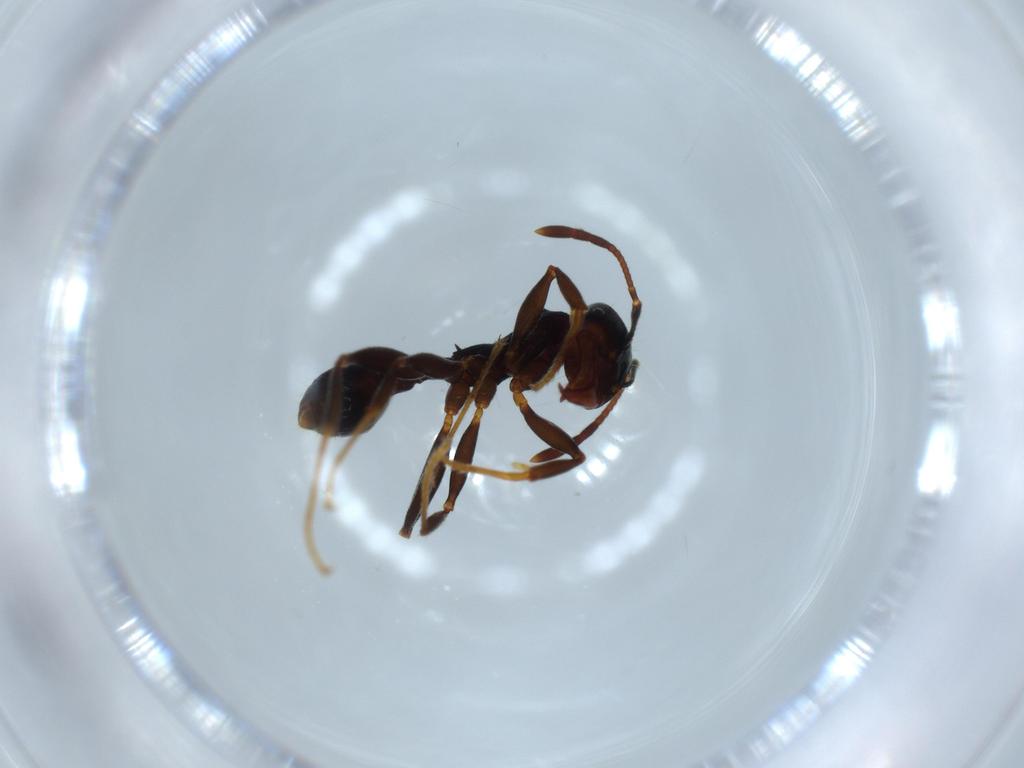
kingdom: Animalia
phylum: Arthropoda
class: Insecta
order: Hymenoptera
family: Formicidae
